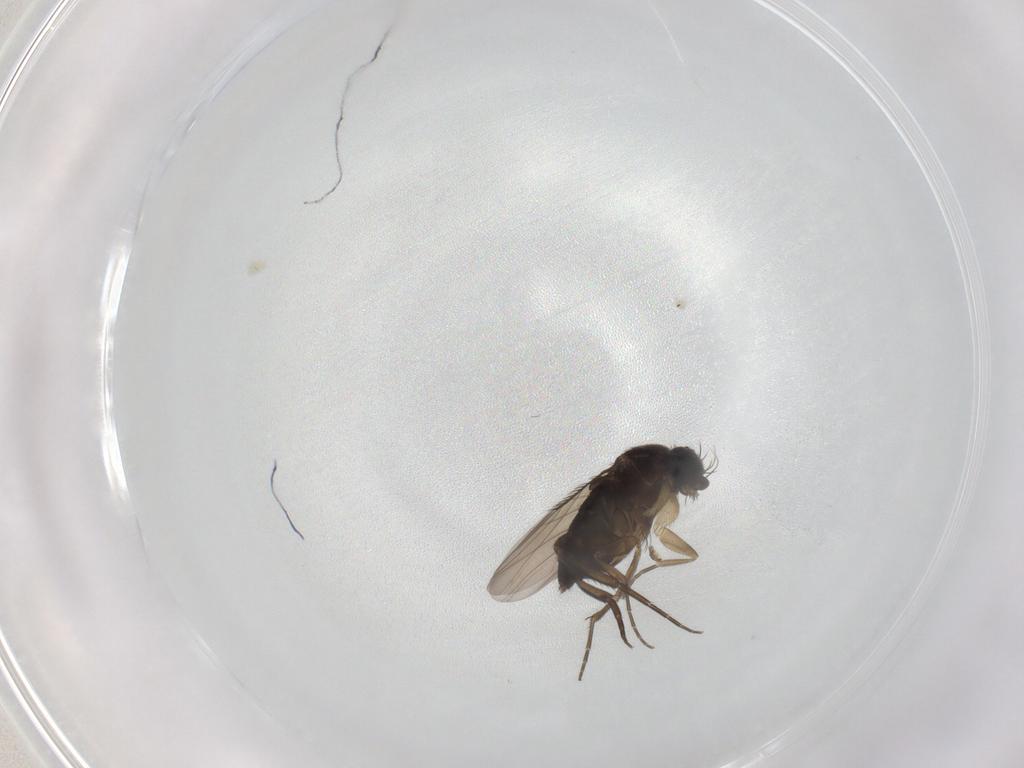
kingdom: Animalia
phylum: Arthropoda
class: Insecta
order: Diptera
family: Phoridae
